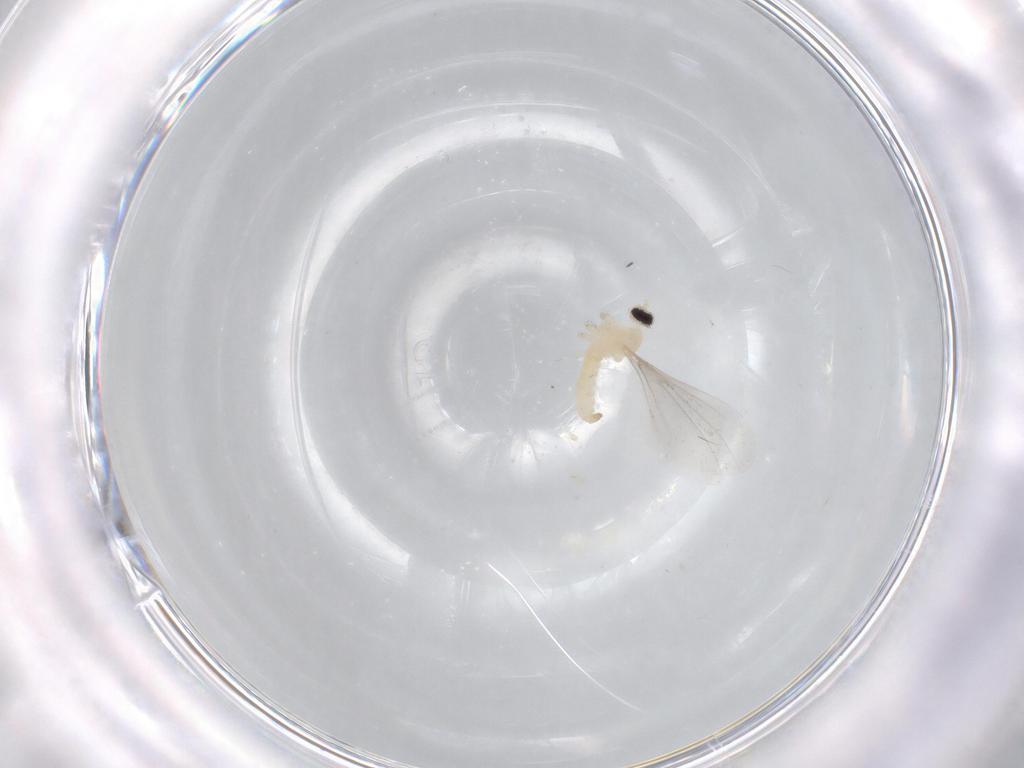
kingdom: Animalia
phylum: Arthropoda
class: Insecta
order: Diptera
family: Cecidomyiidae
